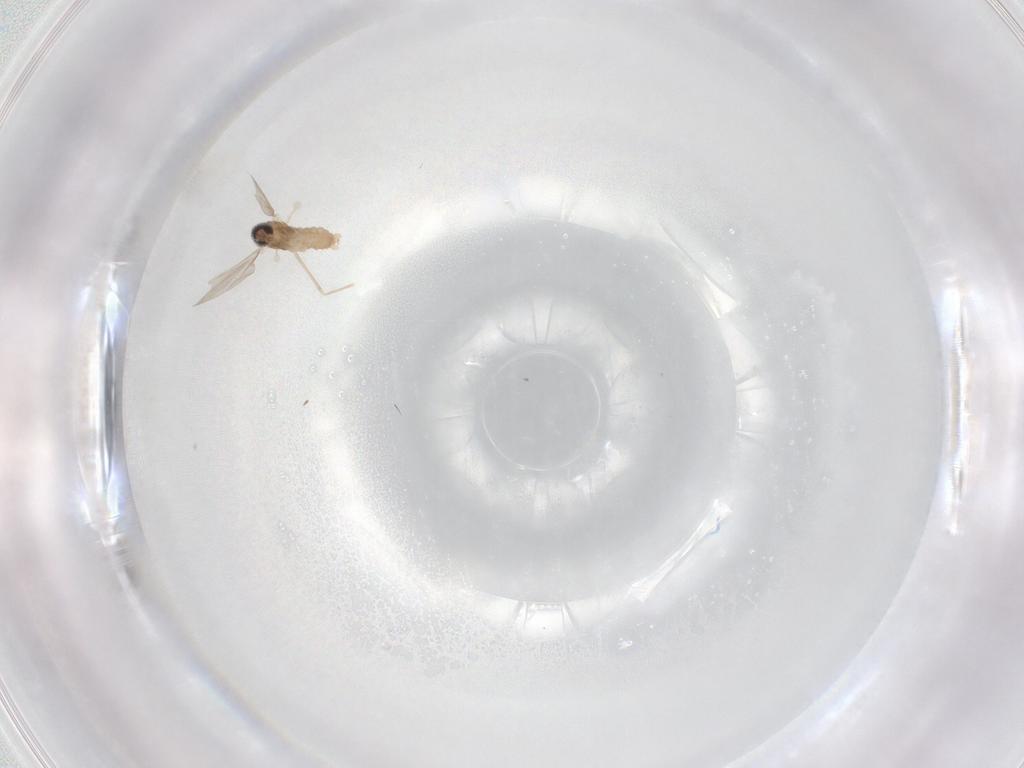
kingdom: Animalia
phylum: Arthropoda
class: Insecta
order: Diptera
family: Cecidomyiidae
